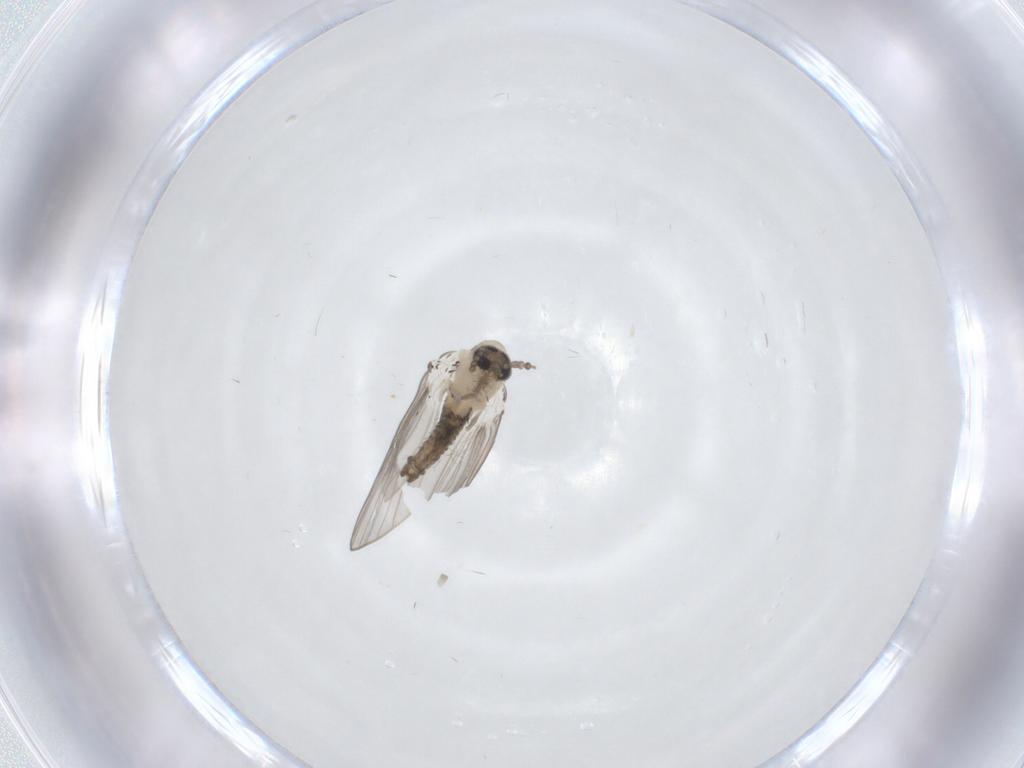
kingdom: Animalia
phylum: Arthropoda
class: Insecta
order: Diptera
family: Psychodidae
